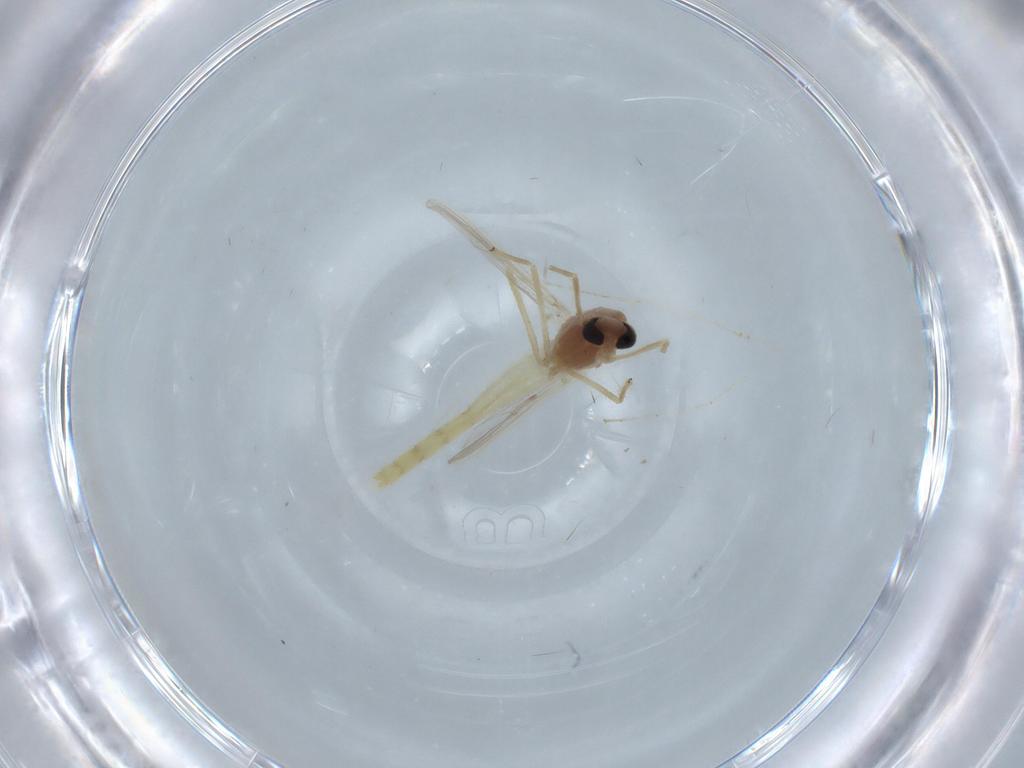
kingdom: Animalia
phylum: Arthropoda
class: Insecta
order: Diptera
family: Chironomidae
